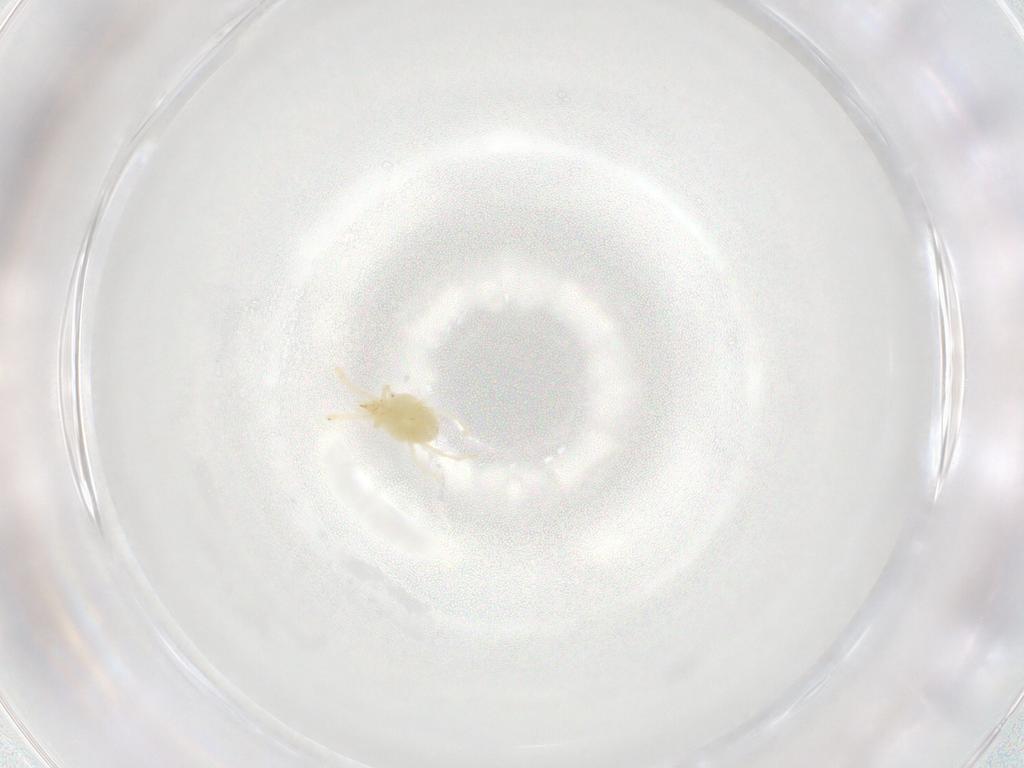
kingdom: Animalia
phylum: Arthropoda
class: Arachnida
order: Trombidiformes
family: Erythraeidae
